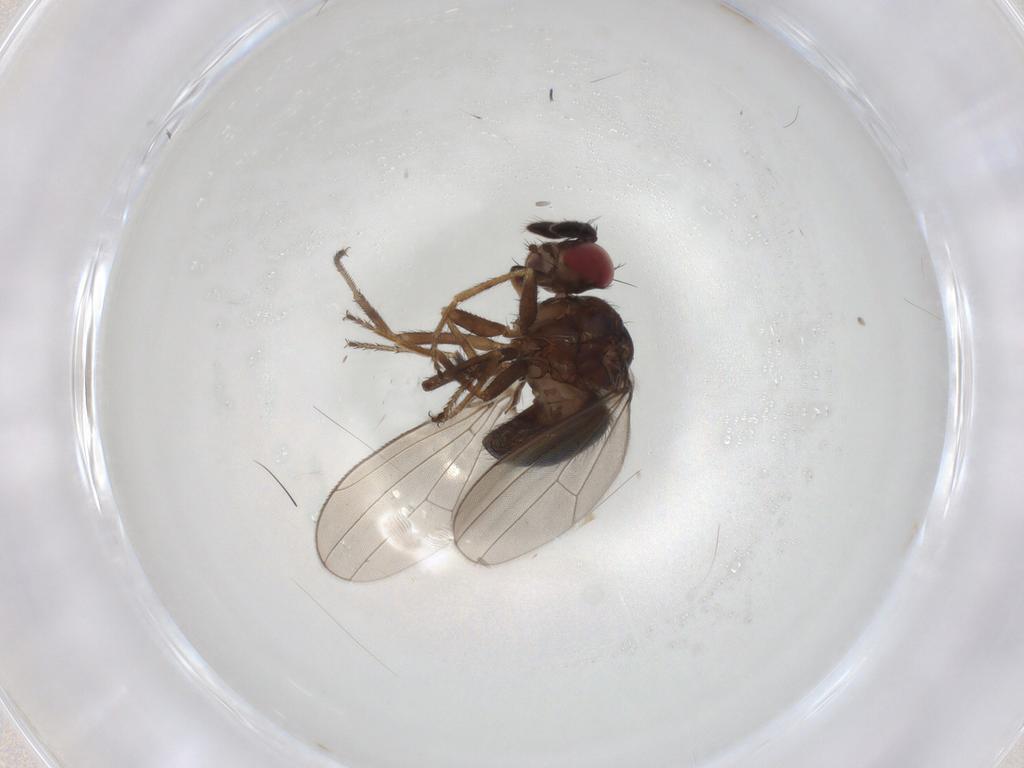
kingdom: Animalia
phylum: Arthropoda
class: Insecta
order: Diptera
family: Ephydridae
